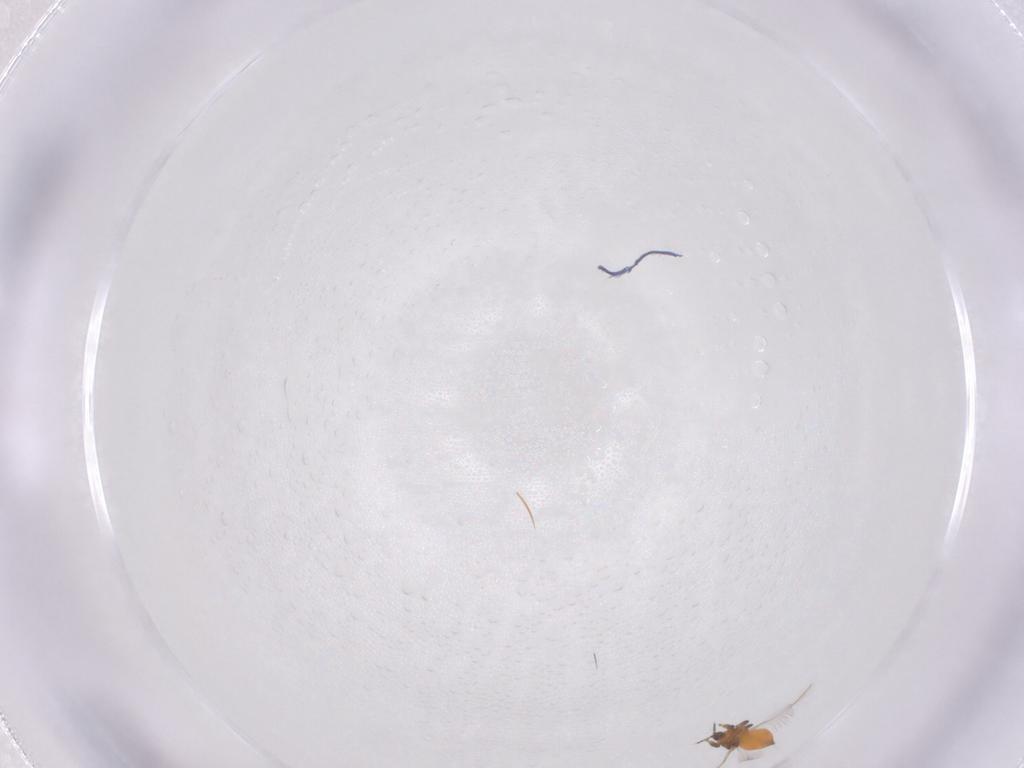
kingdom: Animalia
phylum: Arthropoda
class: Insecta
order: Thysanoptera
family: Thripidae
